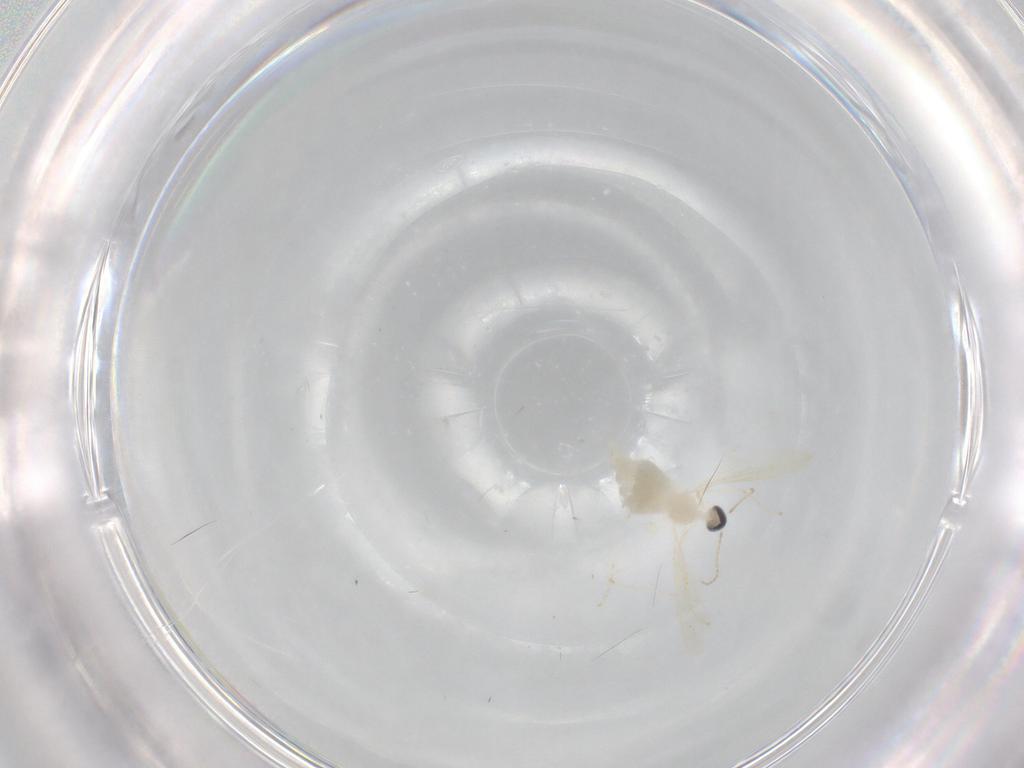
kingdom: Animalia
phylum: Arthropoda
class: Insecta
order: Diptera
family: Cecidomyiidae
